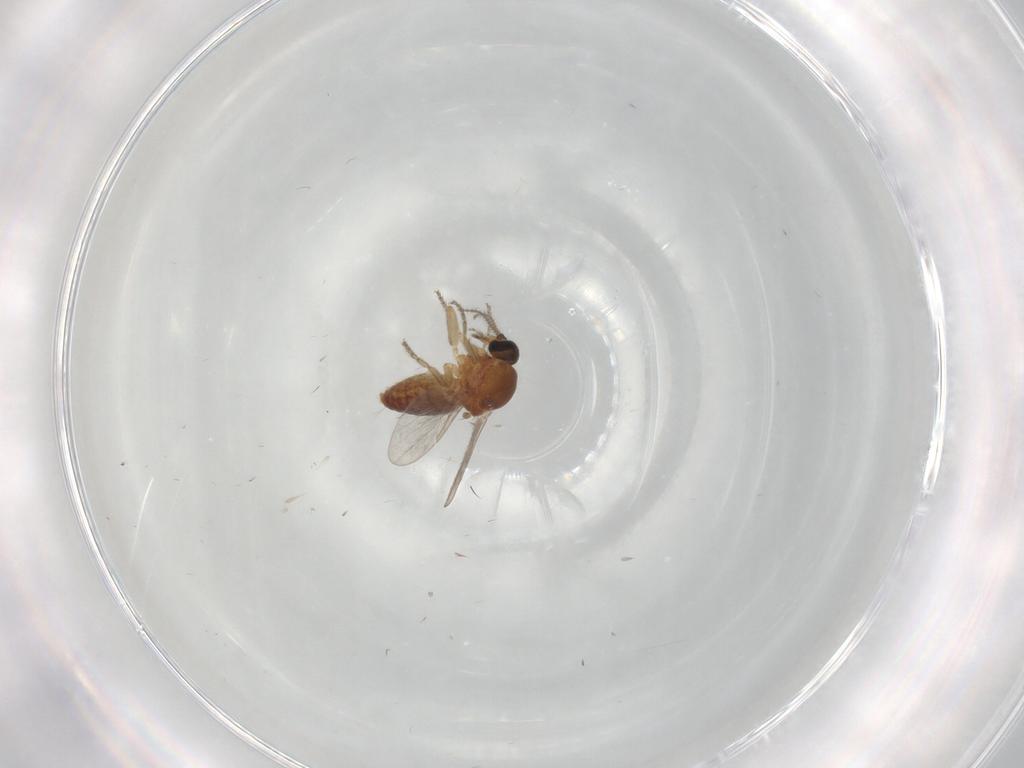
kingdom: Animalia
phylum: Arthropoda
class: Insecta
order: Diptera
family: Ceratopogonidae
